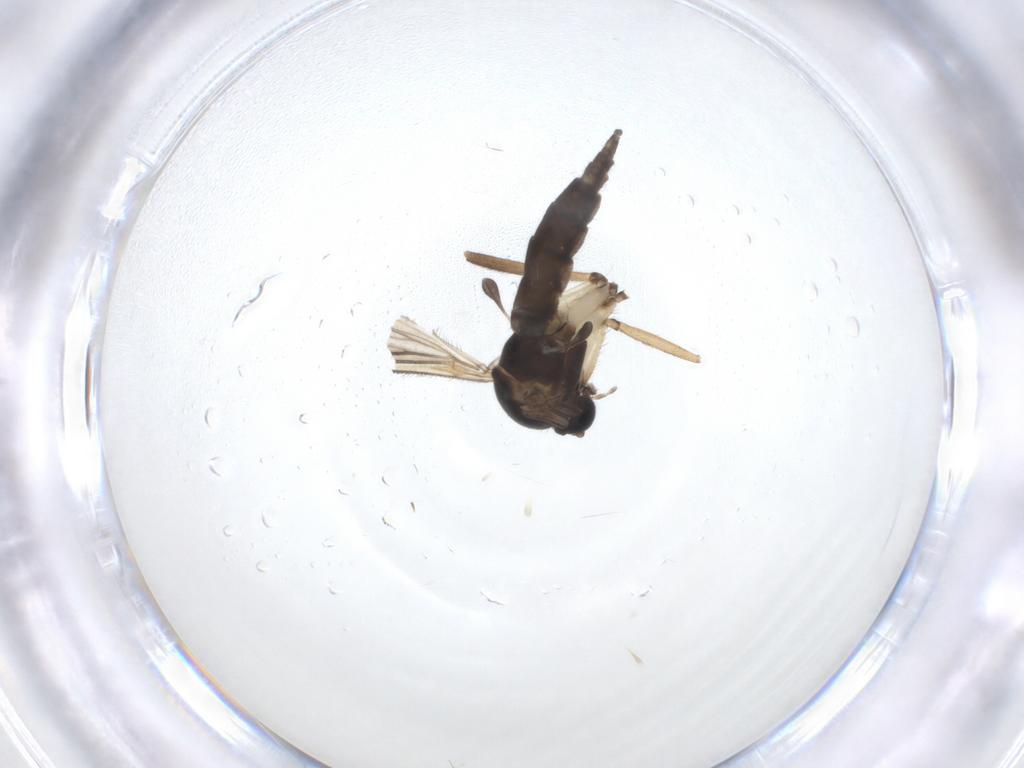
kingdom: Animalia
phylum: Arthropoda
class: Insecta
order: Diptera
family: Sciaridae
